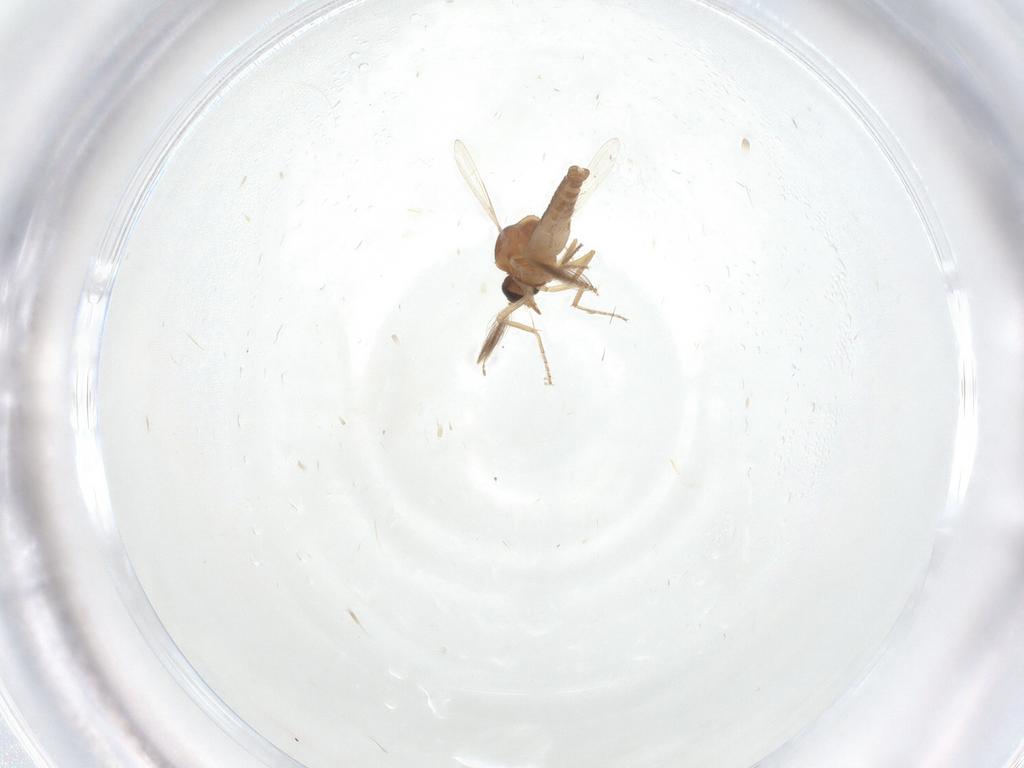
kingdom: Animalia
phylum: Arthropoda
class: Insecta
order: Diptera
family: Ceratopogonidae
